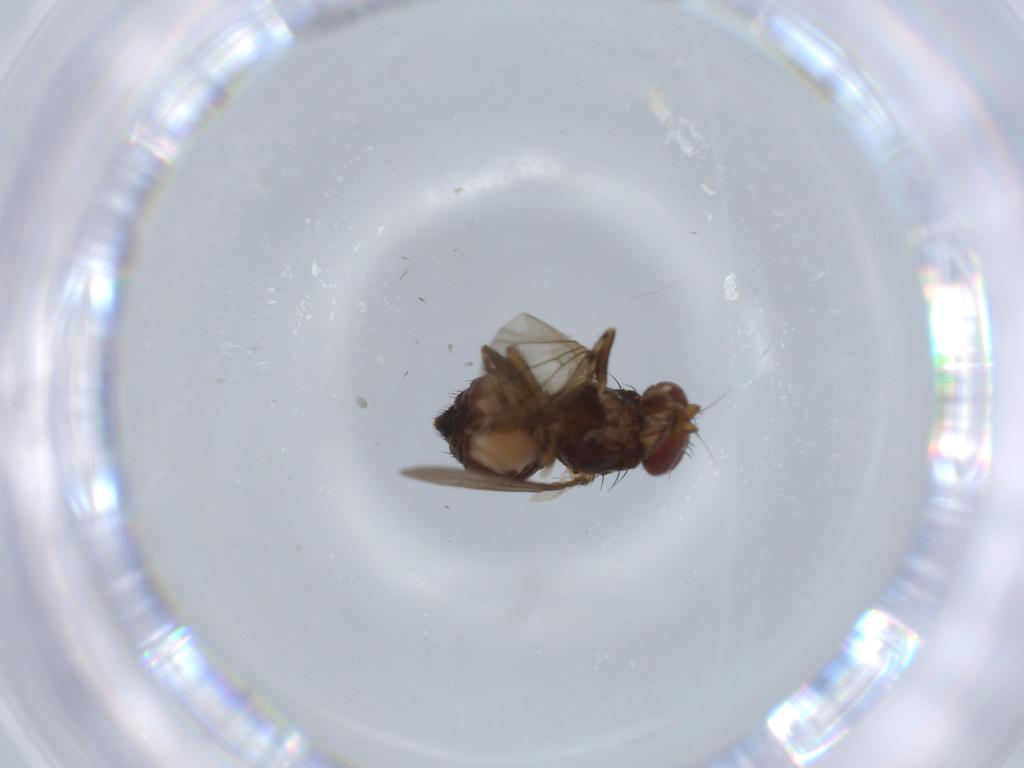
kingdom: Animalia
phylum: Arthropoda
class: Insecta
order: Diptera
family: Heleomyzidae
